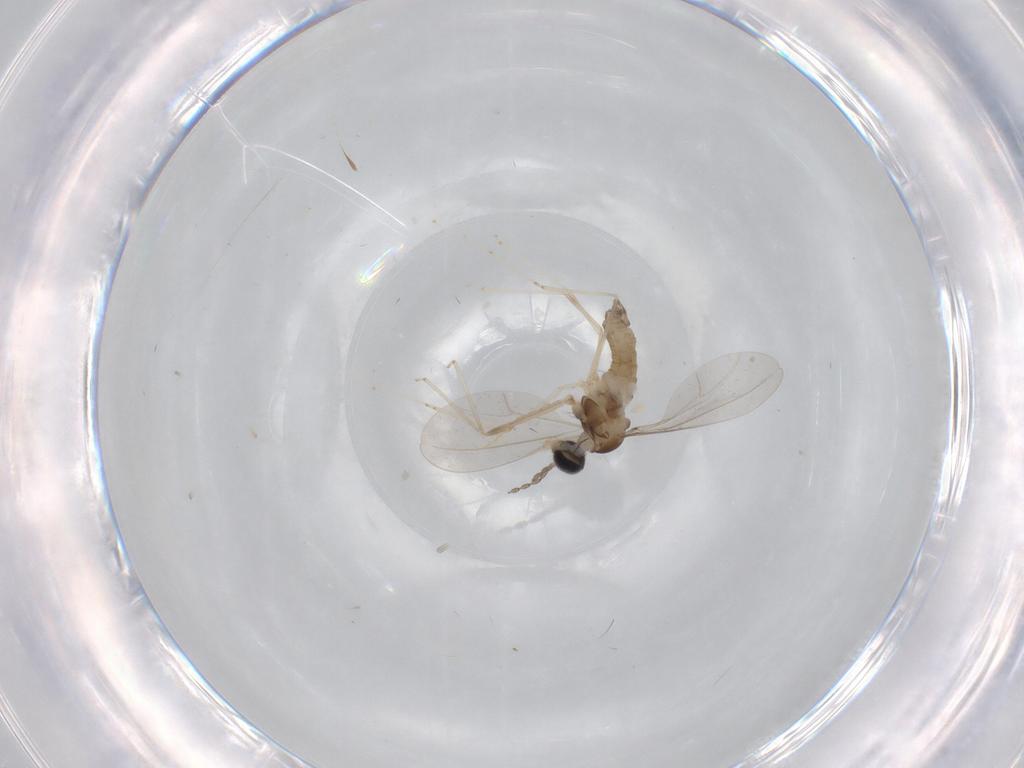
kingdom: Animalia
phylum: Arthropoda
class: Insecta
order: Diptera
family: Cecidomyiidae
